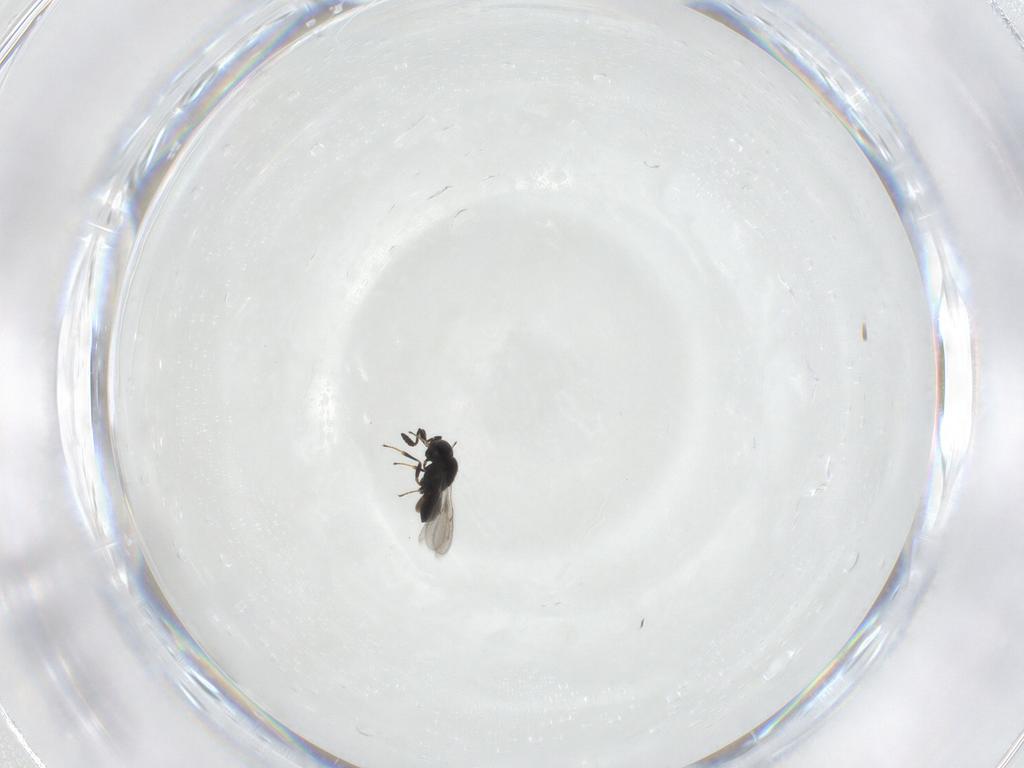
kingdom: Animalia
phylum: Arthropoda
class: Insecta
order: Hymenoptera
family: Scelionidae
